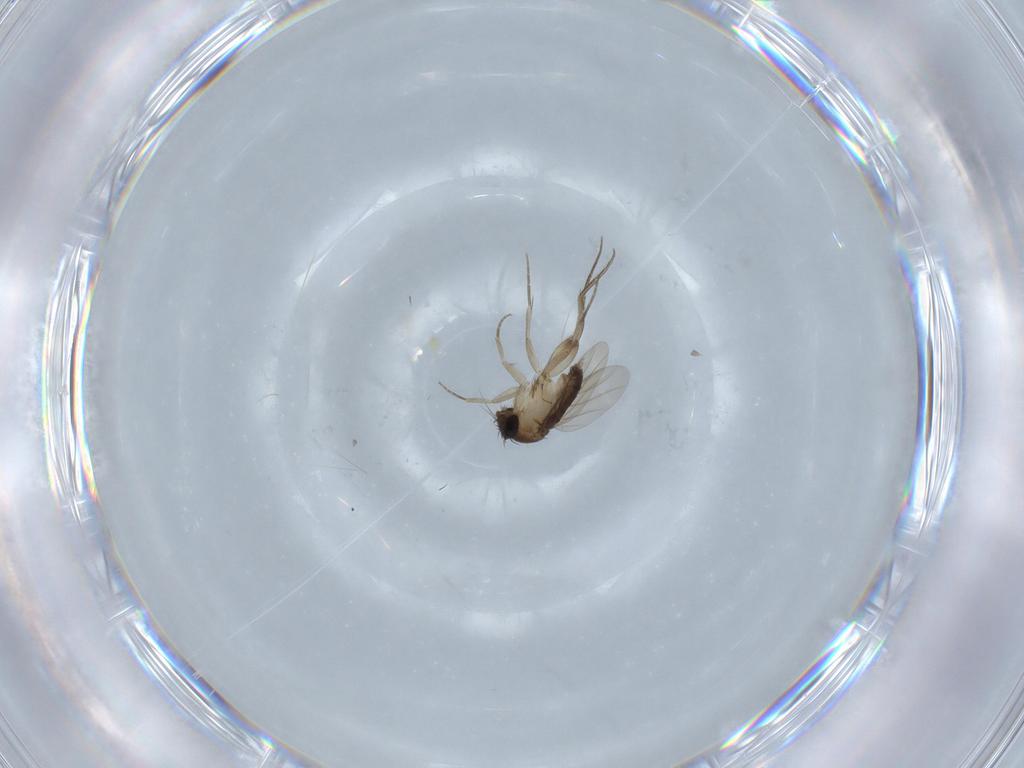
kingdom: Animalia
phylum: Arthropoda
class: Insecta
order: Diptera
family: Phoridae
